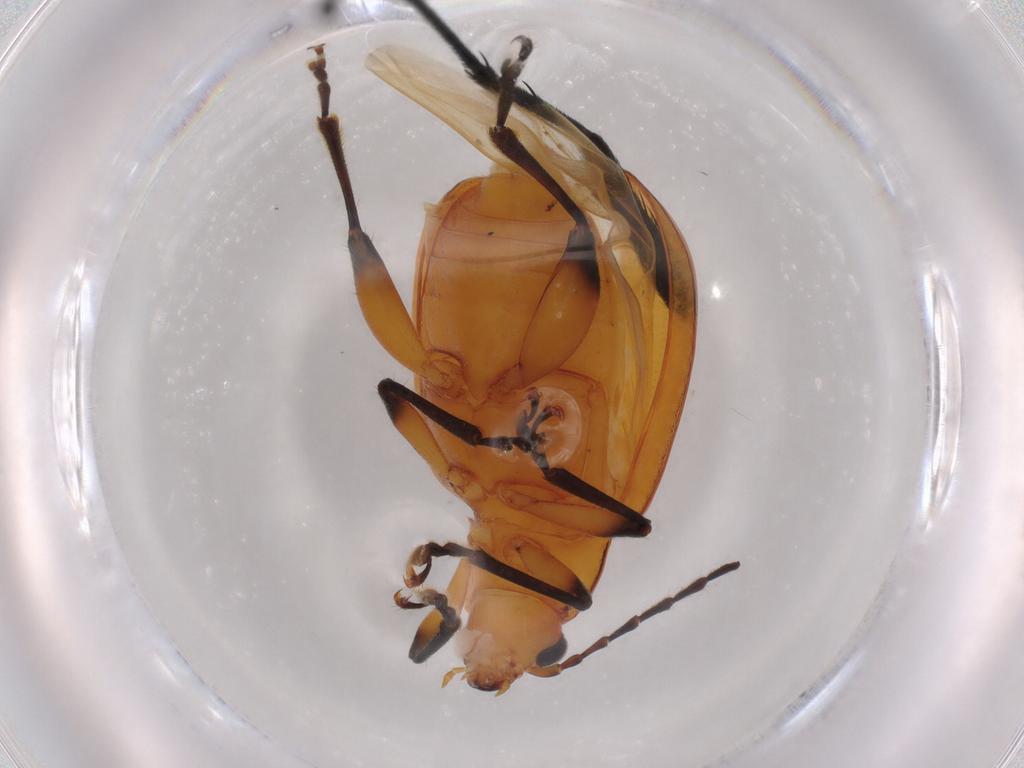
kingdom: Animalia
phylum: Arthropoda
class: Insecta
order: Coleoptera
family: Chrysomelidae
